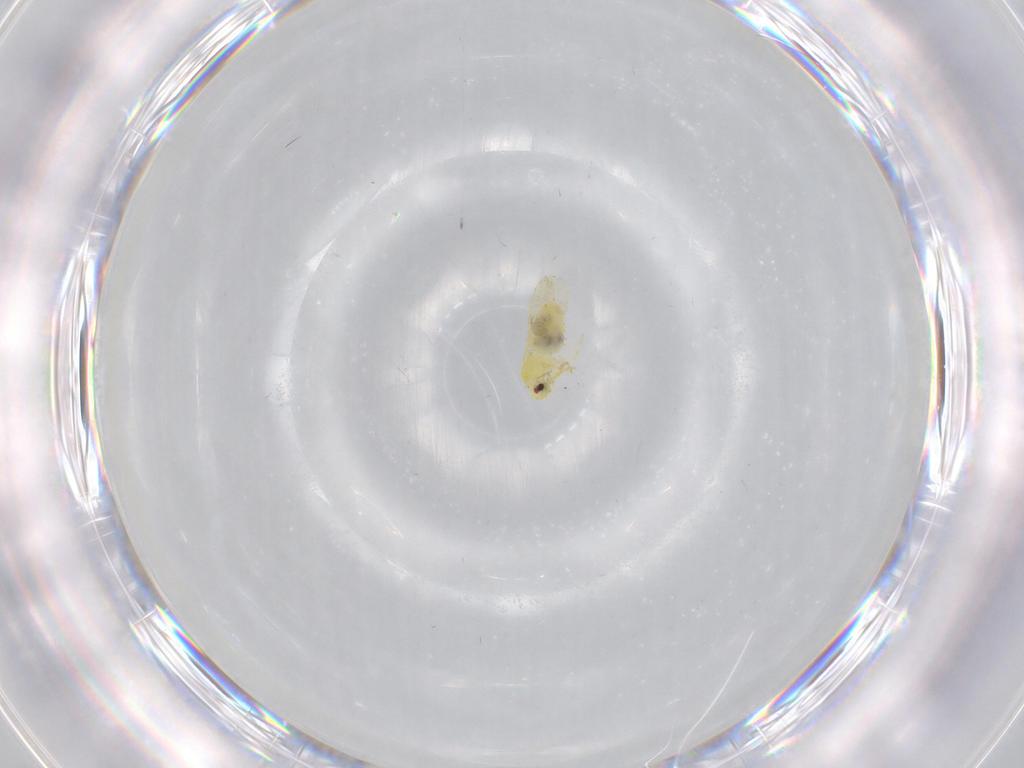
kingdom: Animalia
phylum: Arthropoda
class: Insecta
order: Hemiptera
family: Aleyrodidae
